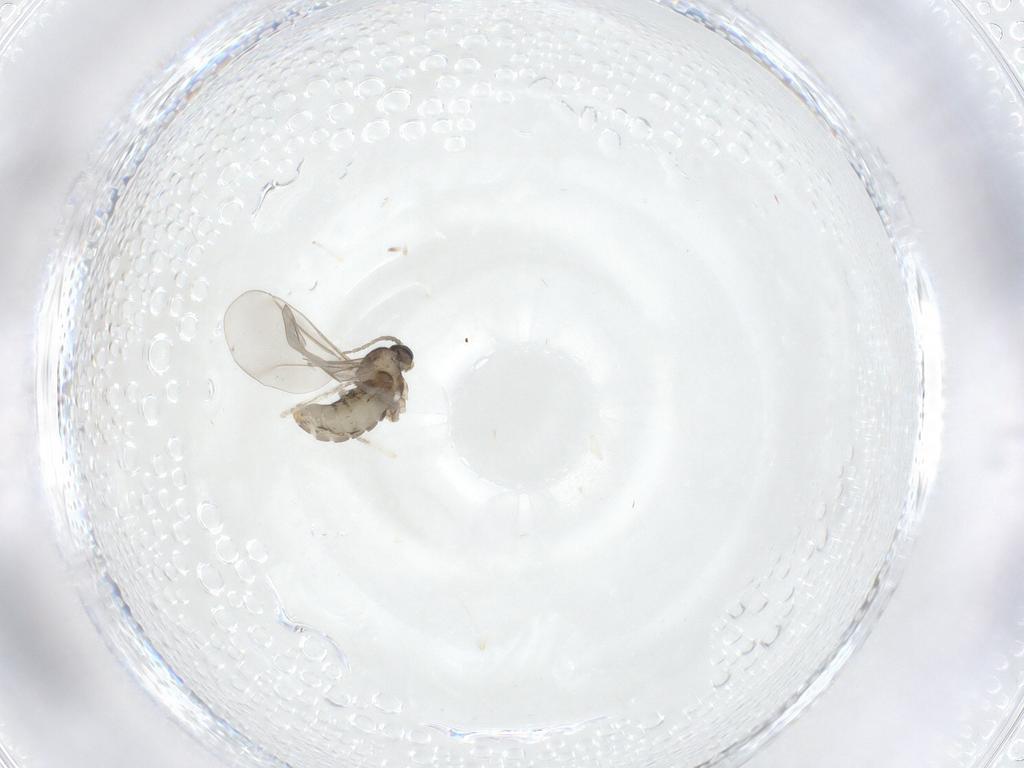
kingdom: Animalia
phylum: Arthropoda
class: Insecta
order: Diptera
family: Cecidomyiidae
